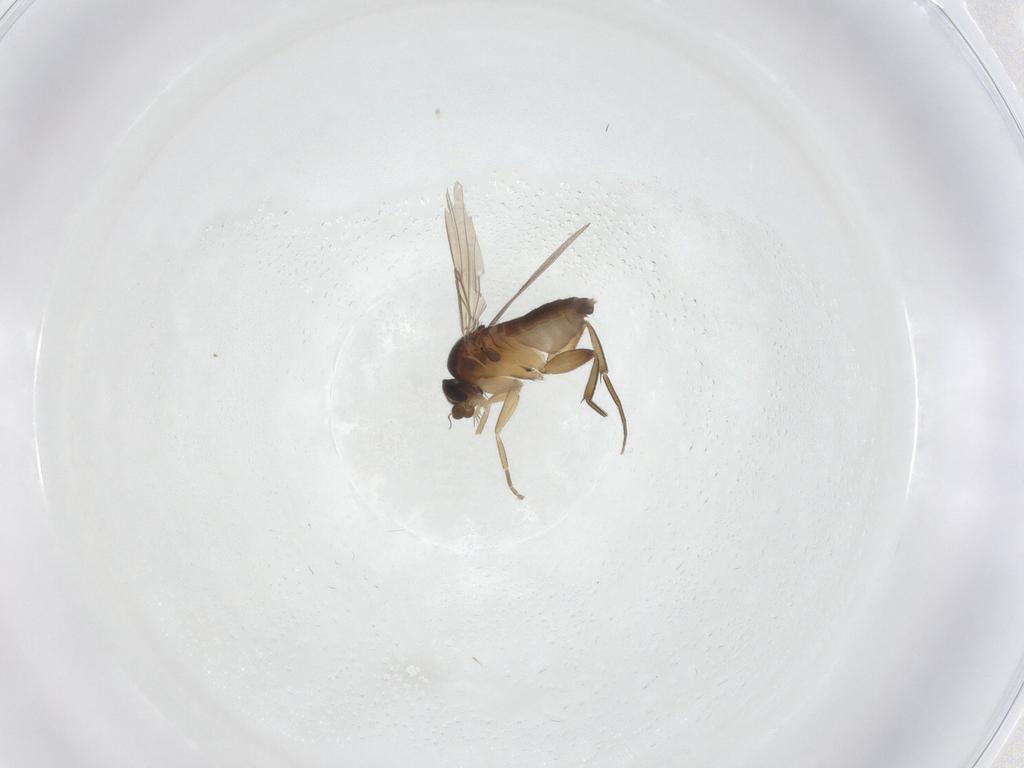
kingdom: Animalia
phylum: Arthropoda
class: Insecta
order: Diptera
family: Phoridae
